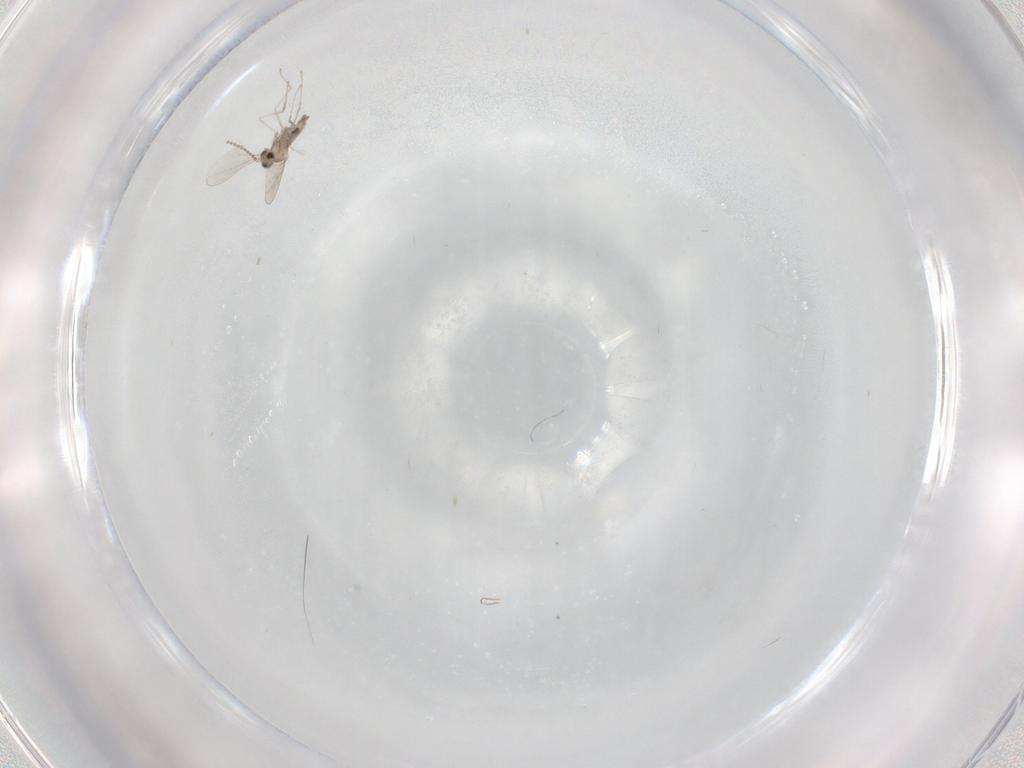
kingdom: Animalia
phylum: Arthropoda
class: Insecta
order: Diptera
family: Cecidomyiidae
